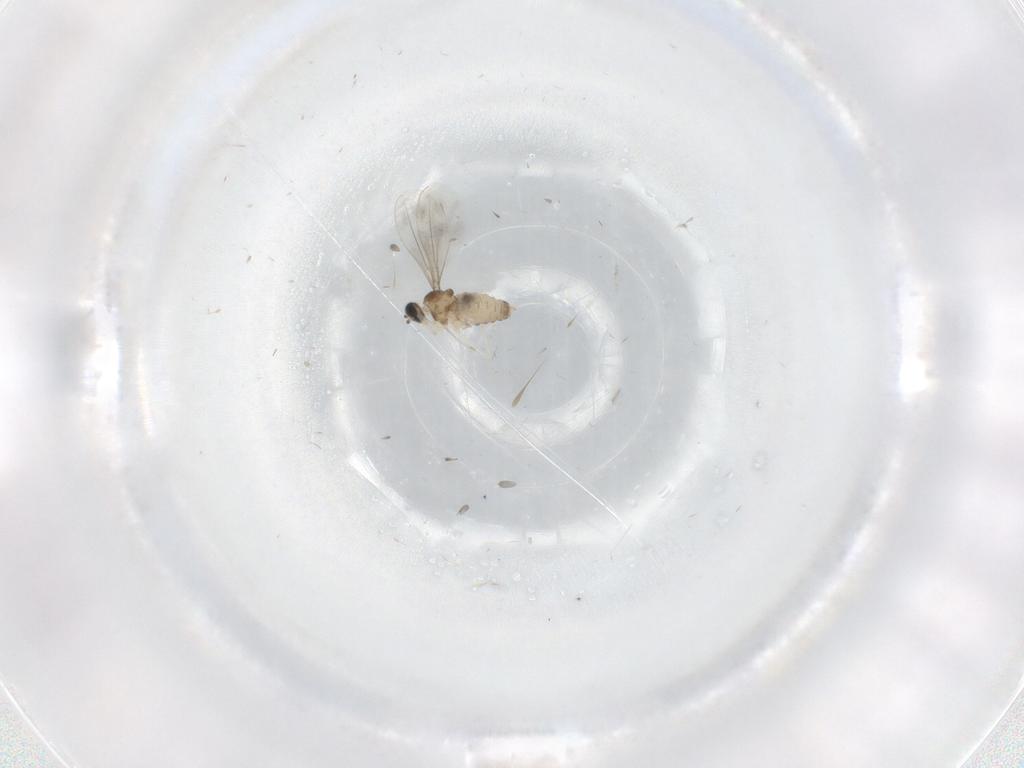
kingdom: Animalia
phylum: Arthropoda
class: Insecta
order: Diptera
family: Cecidomyiidae
